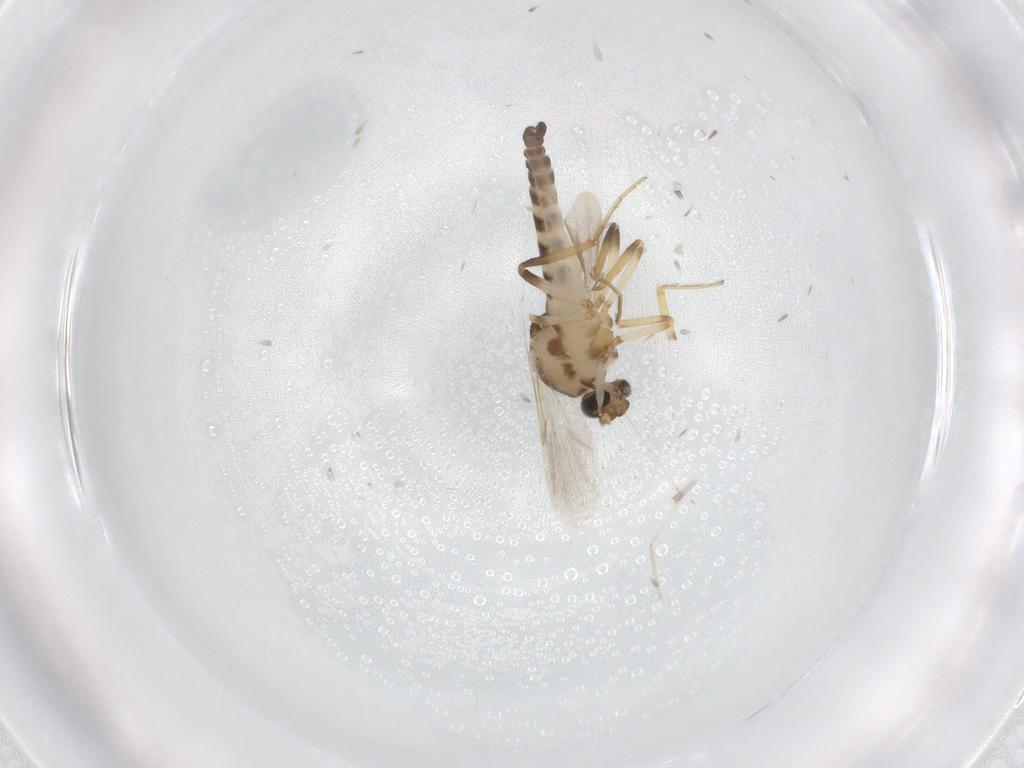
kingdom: Animalia
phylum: Arthropoda
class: Insecta
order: Diptera
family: Ceratopogonidae
